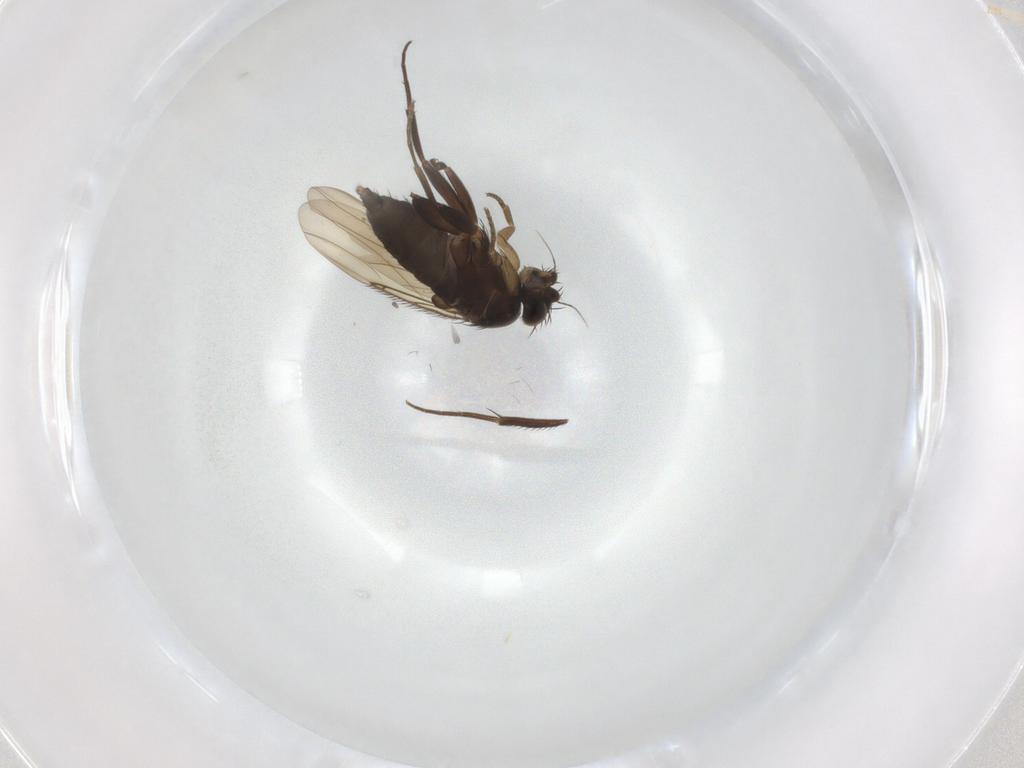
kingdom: Animalia
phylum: Arthropoda
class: Insecta
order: Diptera
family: Phoridae
